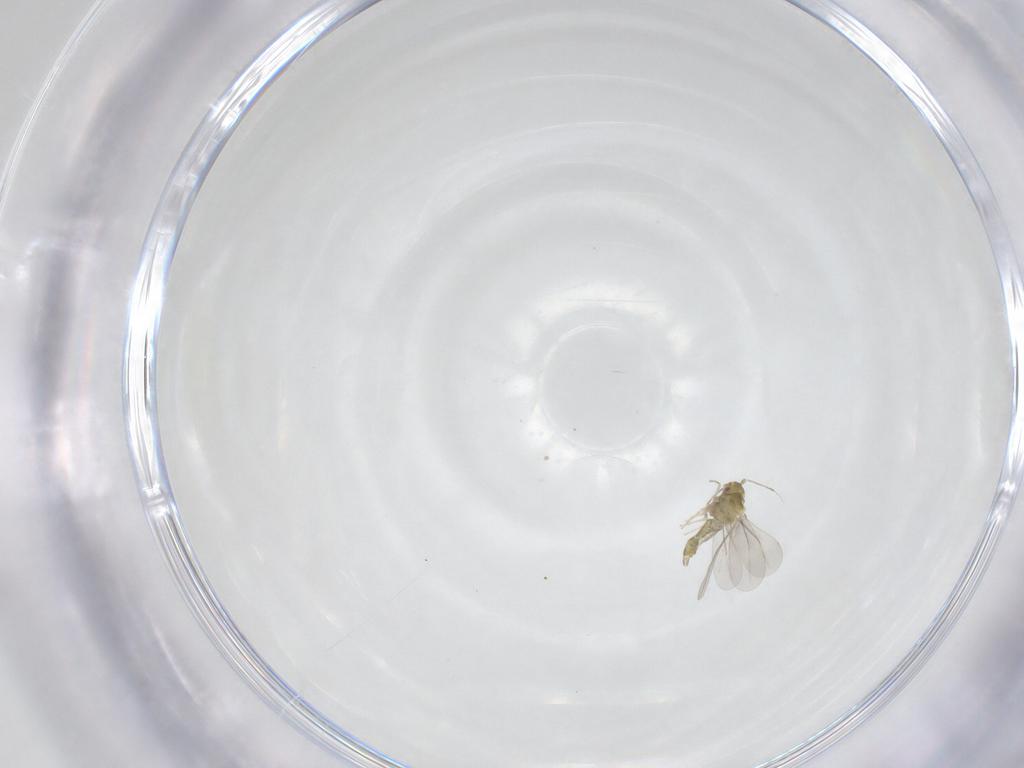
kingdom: Animalia
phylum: Arthropoda
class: Insecta
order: Hemiptera
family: Aleyrodidae
